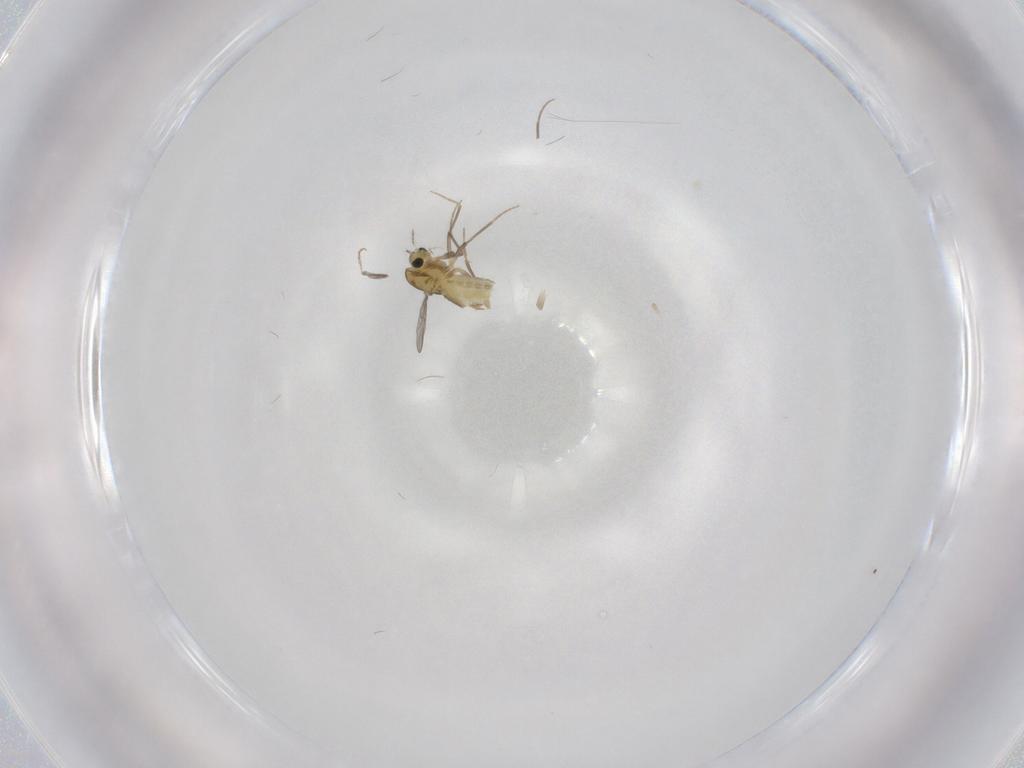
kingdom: Animalia
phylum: Arthropoda
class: Insecta
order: Diptera
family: Chironomidae
